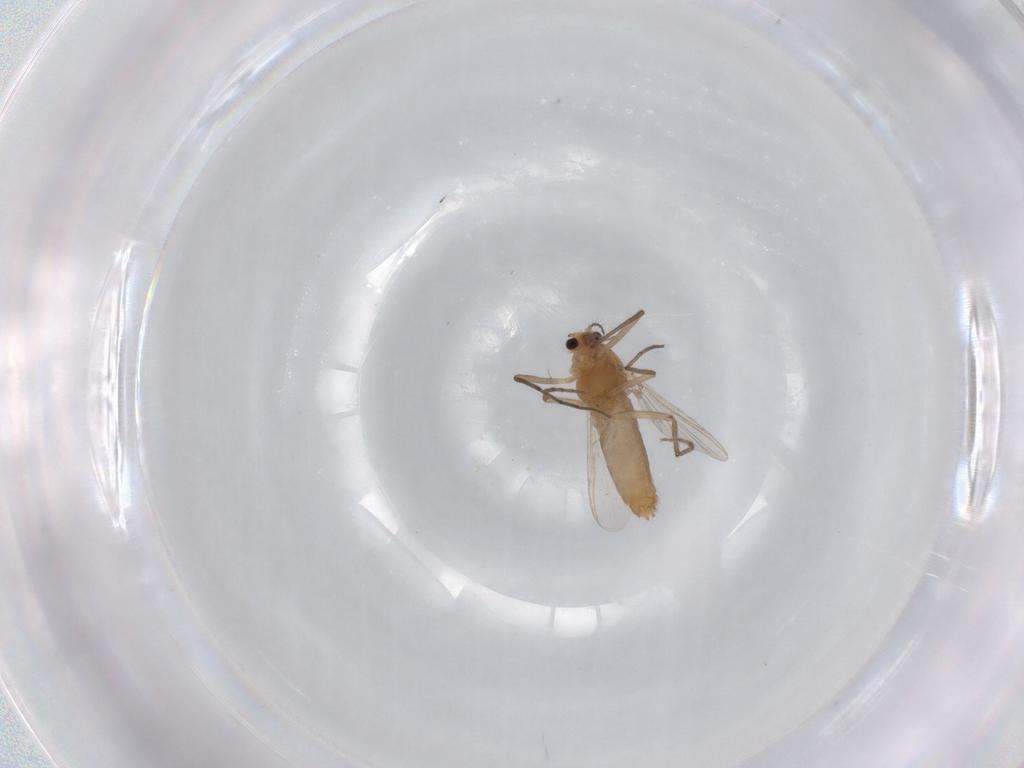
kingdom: Animalia
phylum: Arthropoda
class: Insecta
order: Diptera
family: Chironomidae
